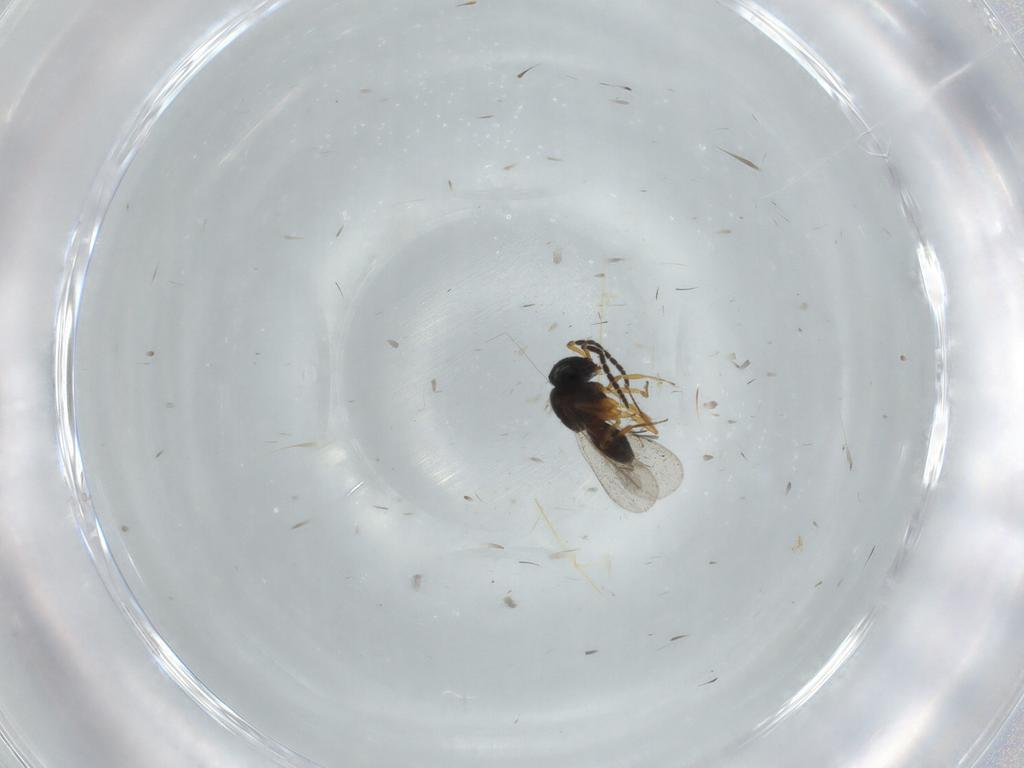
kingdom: Animalia
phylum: Arthropoda
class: Insecta
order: Hymenoptera
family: Scelionidae
